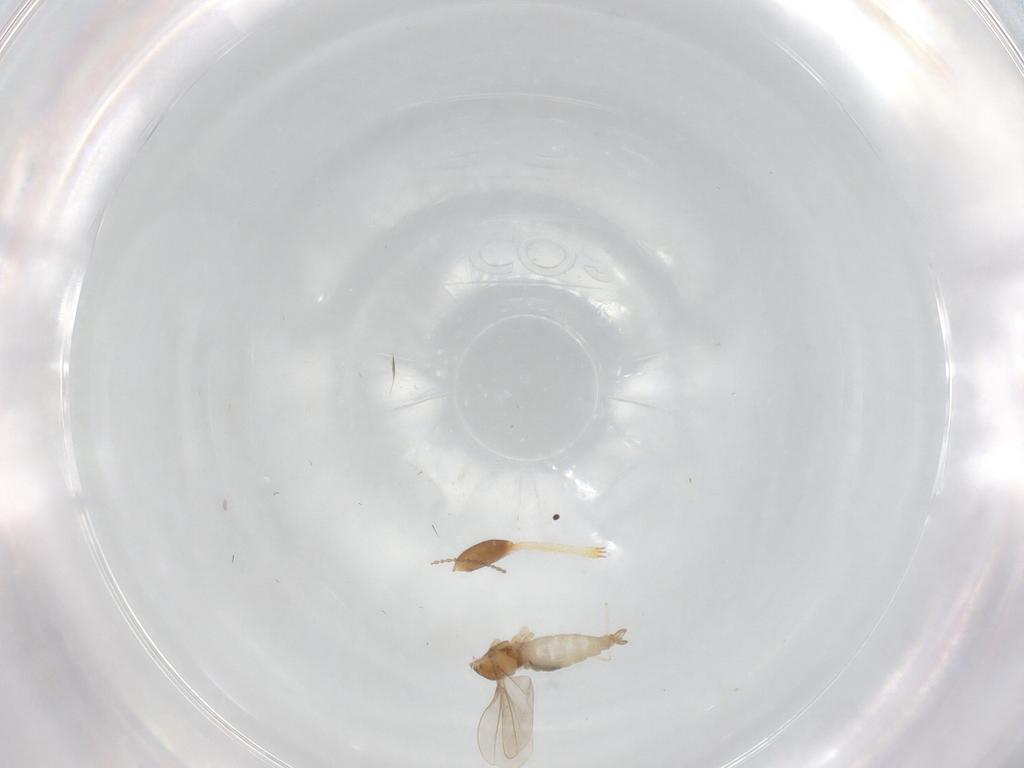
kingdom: Animalia
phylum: Arthropoda
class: Insecta
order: Diptera
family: Cecidomyiidae
